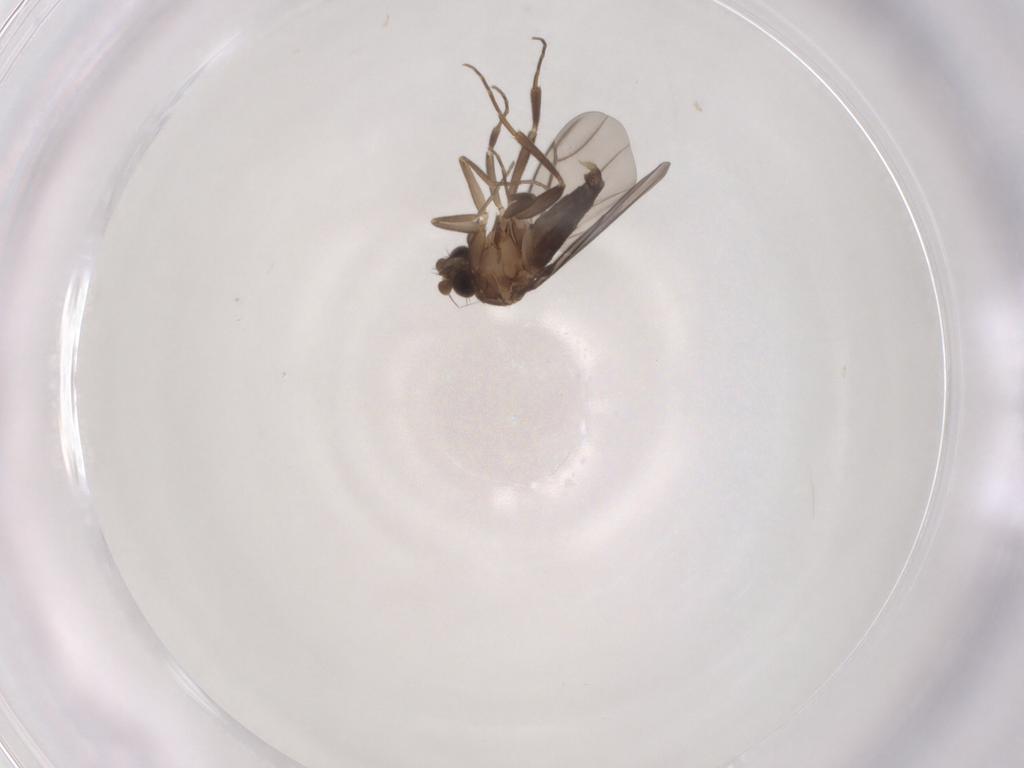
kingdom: Animalia
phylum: Arthropoda
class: Insecta
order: Diptera
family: Phoridae
